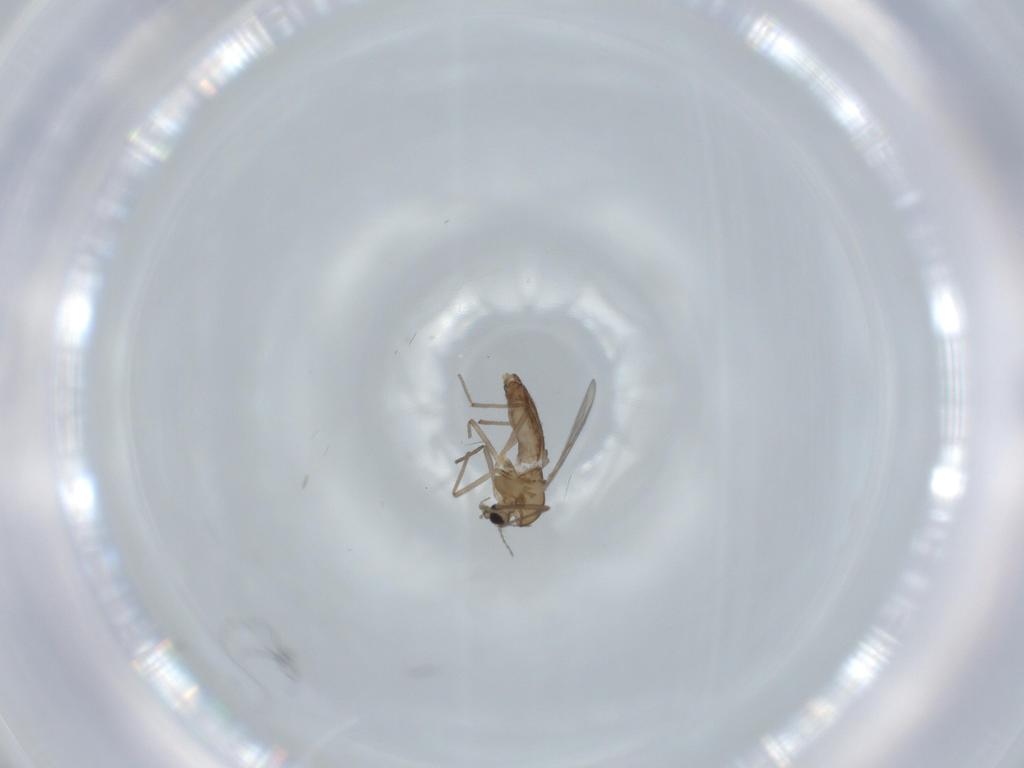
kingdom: Animalia
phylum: Arthropoda
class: Insecta
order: Diptera
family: Chironomidae
